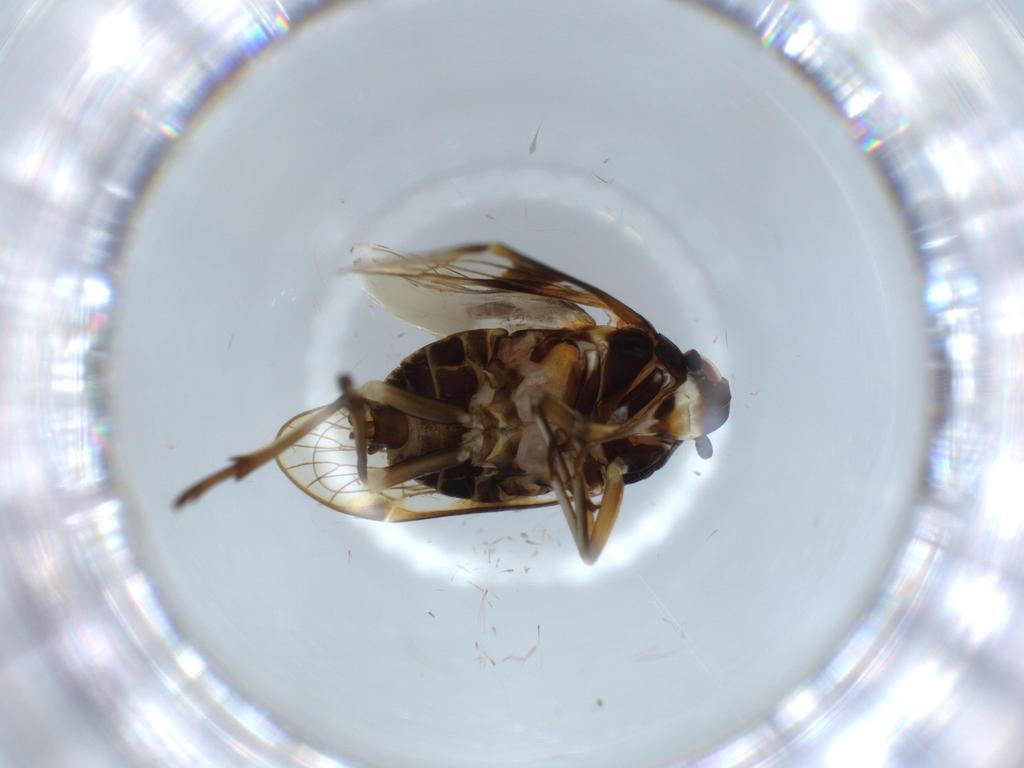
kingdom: Animalia
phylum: Arthropoda
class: Insecta
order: Hemiptera
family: Kinnaridae
